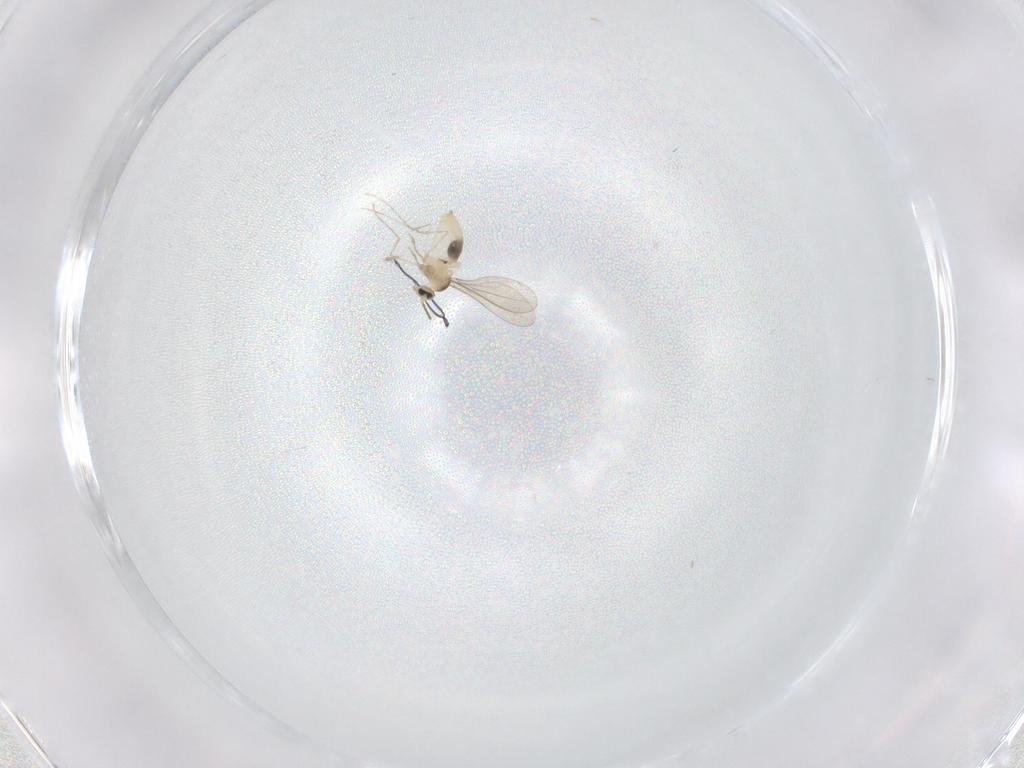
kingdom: Animalia
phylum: Arthropoda
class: Insecta
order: Diptera
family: Cecidomyiidae
